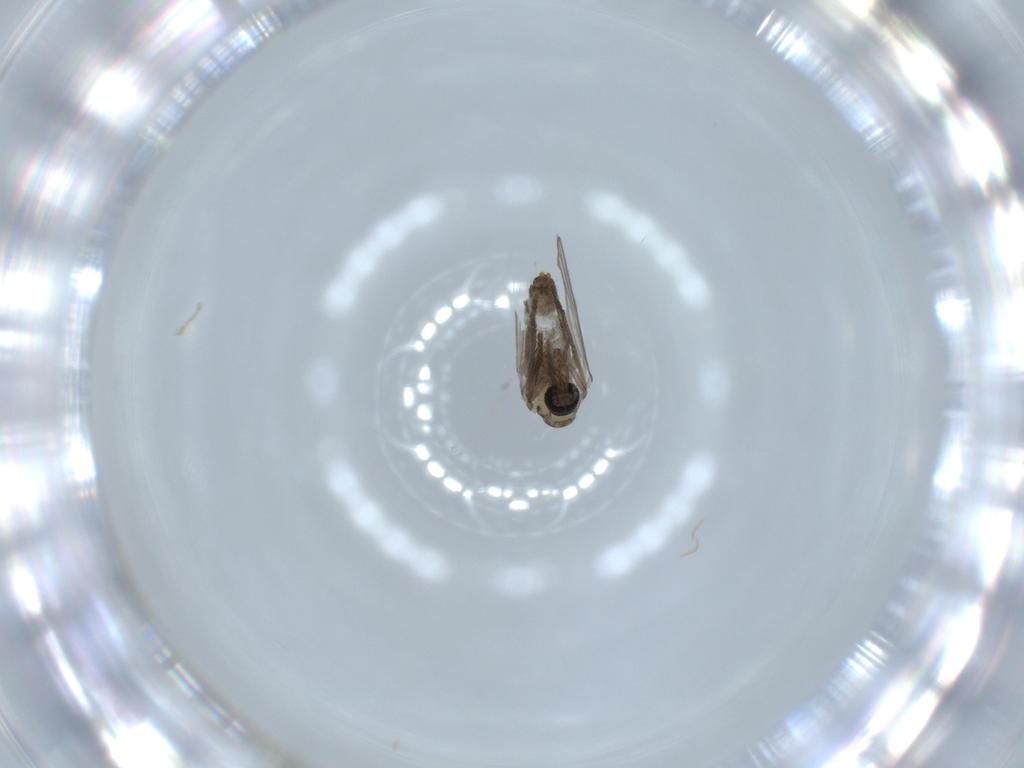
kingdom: Animalia
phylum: Arthropoda
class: Insecta
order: Diptera
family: Psychodidae
